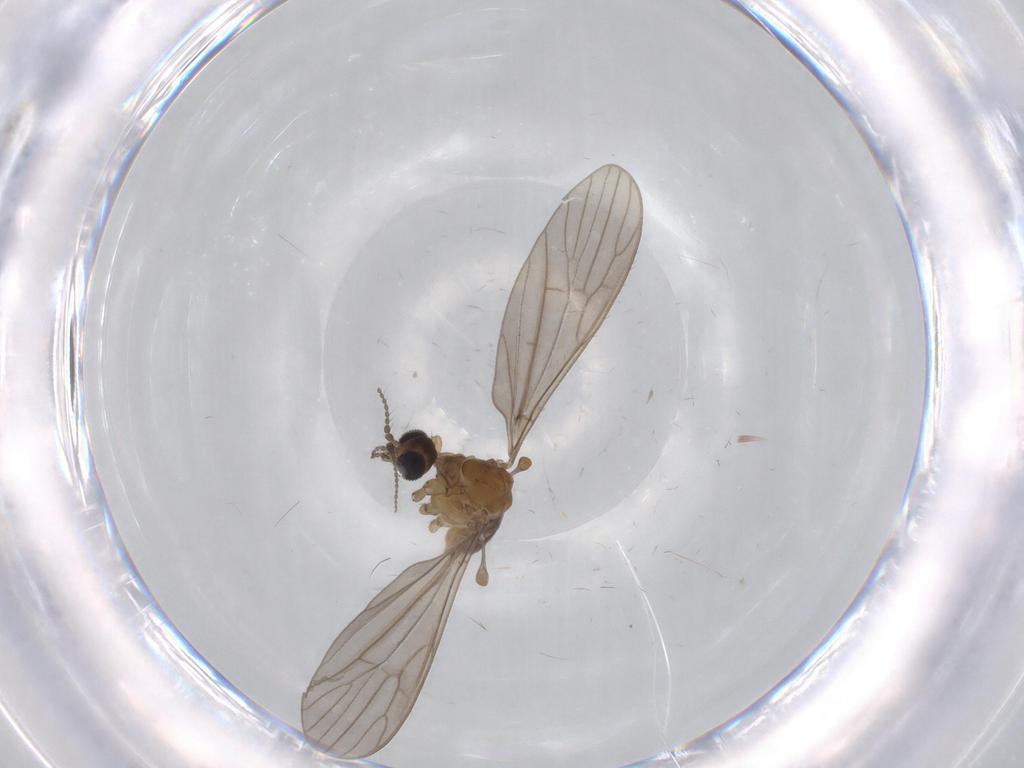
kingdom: Animalia
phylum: Arthropoda
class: Insecta
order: Diptera
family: Limoniidae
